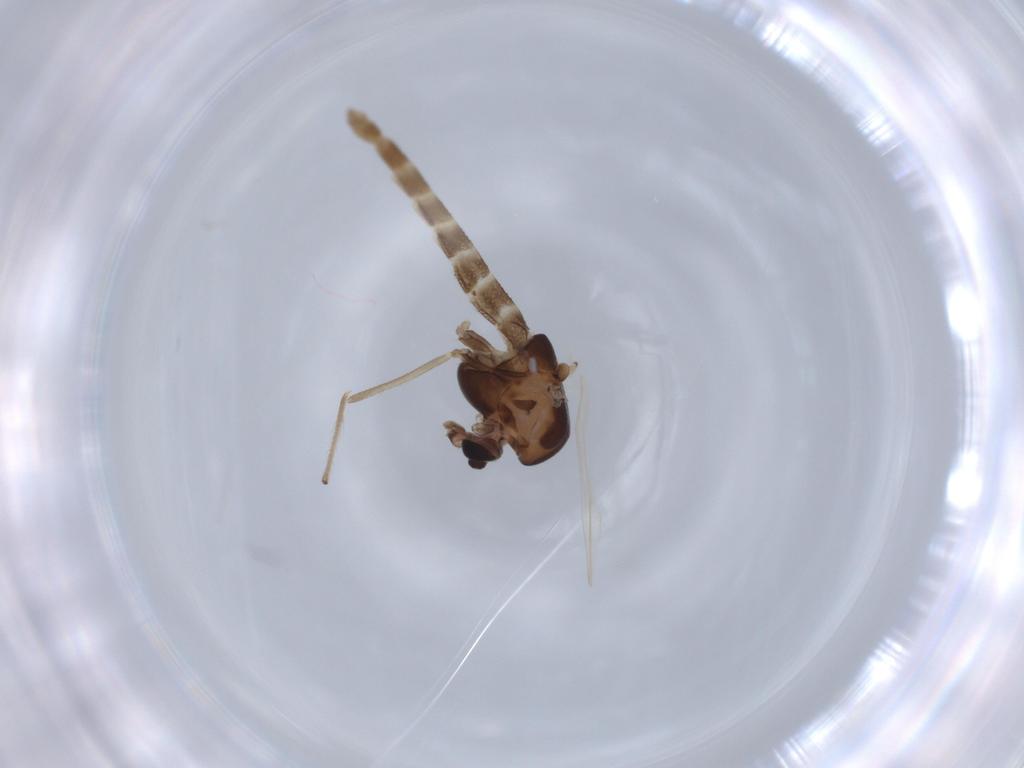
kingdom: Animalia
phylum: Arthropoda
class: Insecta
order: Diptera
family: Chironomidae
